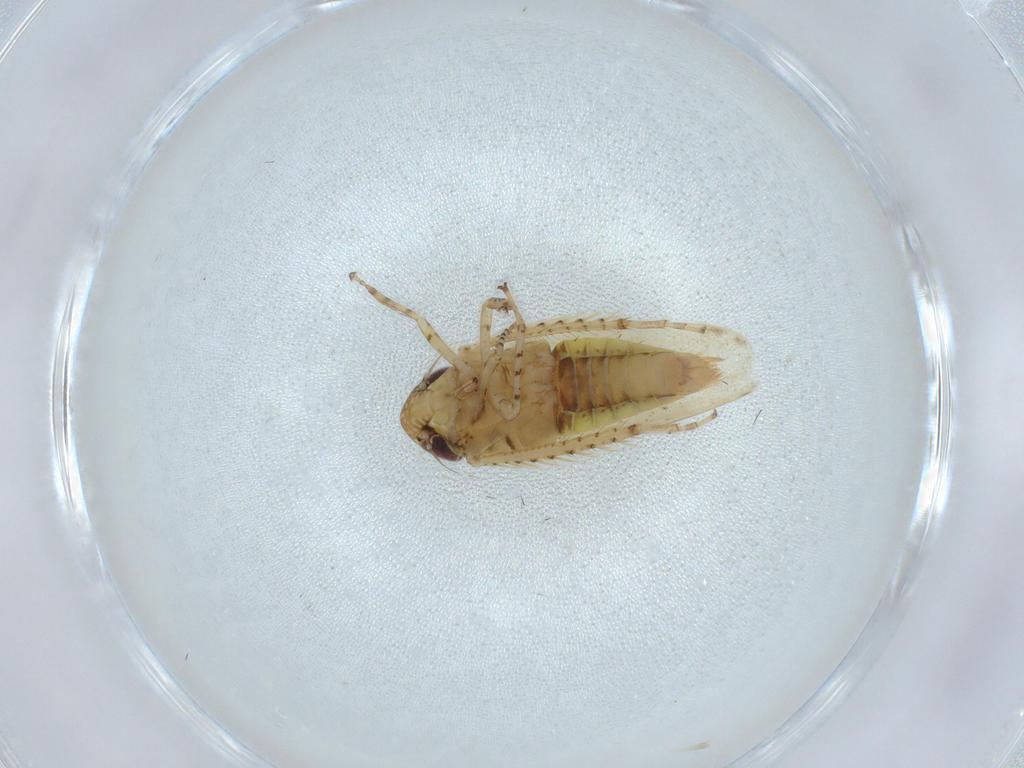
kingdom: Animalia
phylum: Arthropoda
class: Insecta
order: Hemiptera
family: Cicadellidae
